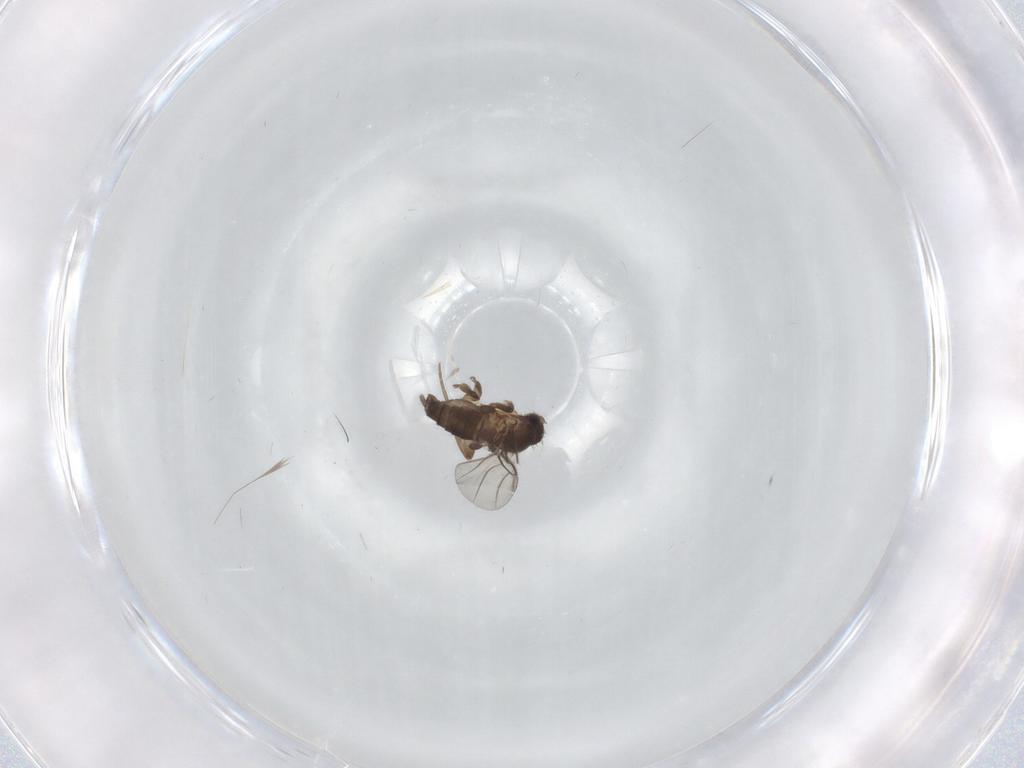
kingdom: Animalia
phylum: Arthropoda
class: Insecta
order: Diptera
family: Phoridae
